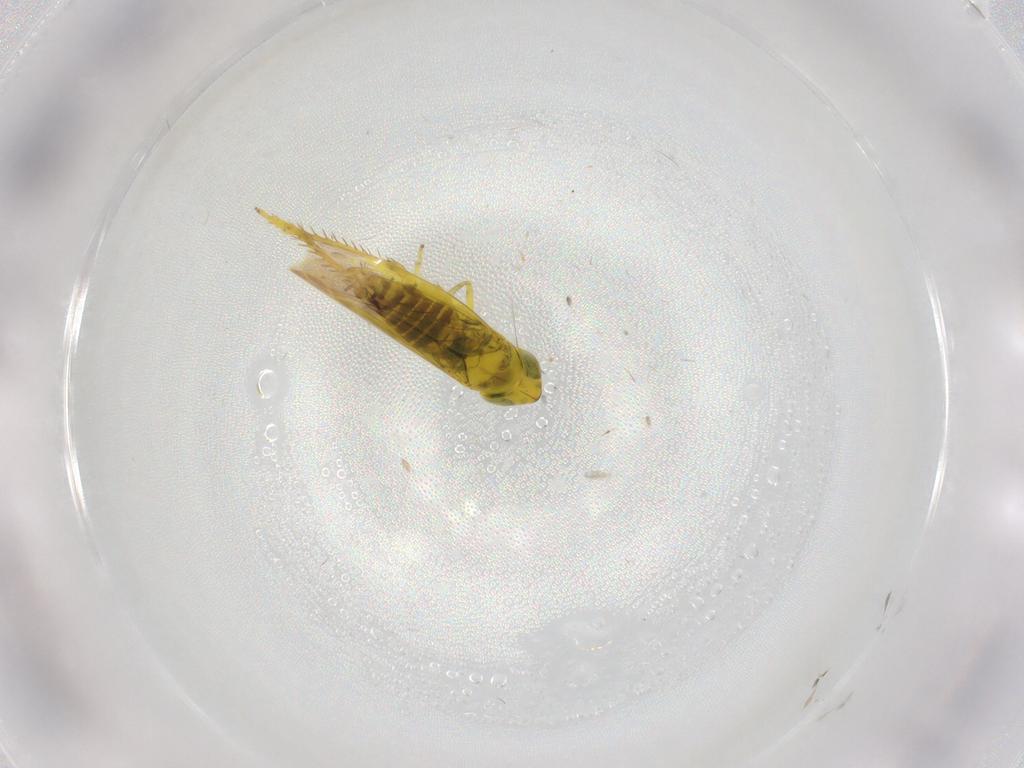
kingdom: Animalia
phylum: Arthropoda
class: Insecta
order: Hemiptera
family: Cicadellidae
